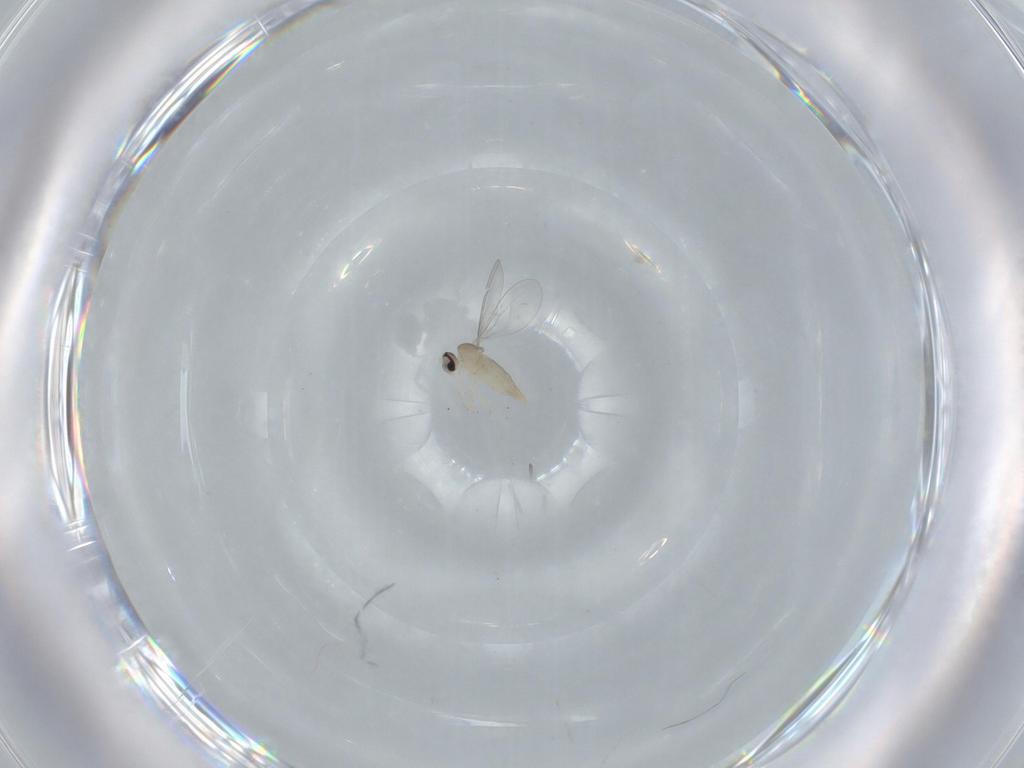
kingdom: Animalia
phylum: Arthropoda
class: Insecta
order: Diptera
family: Cecidomyiidae
